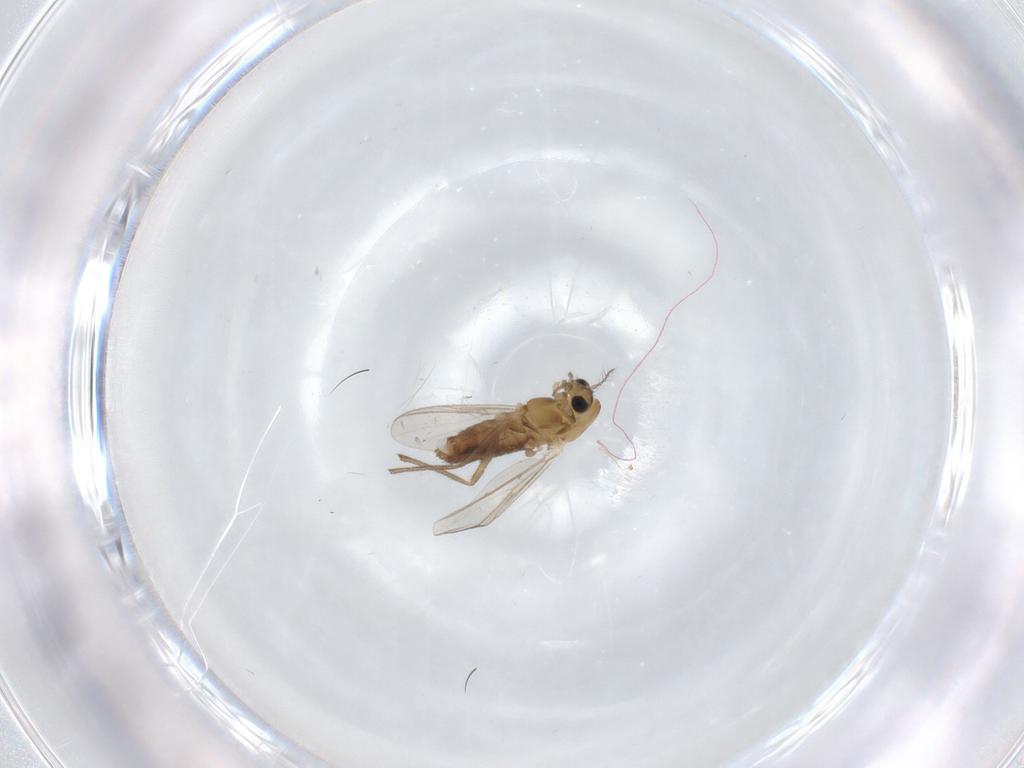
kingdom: Animalia
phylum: Arthropoda
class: Insecta
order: Diptera
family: Chironomidae
